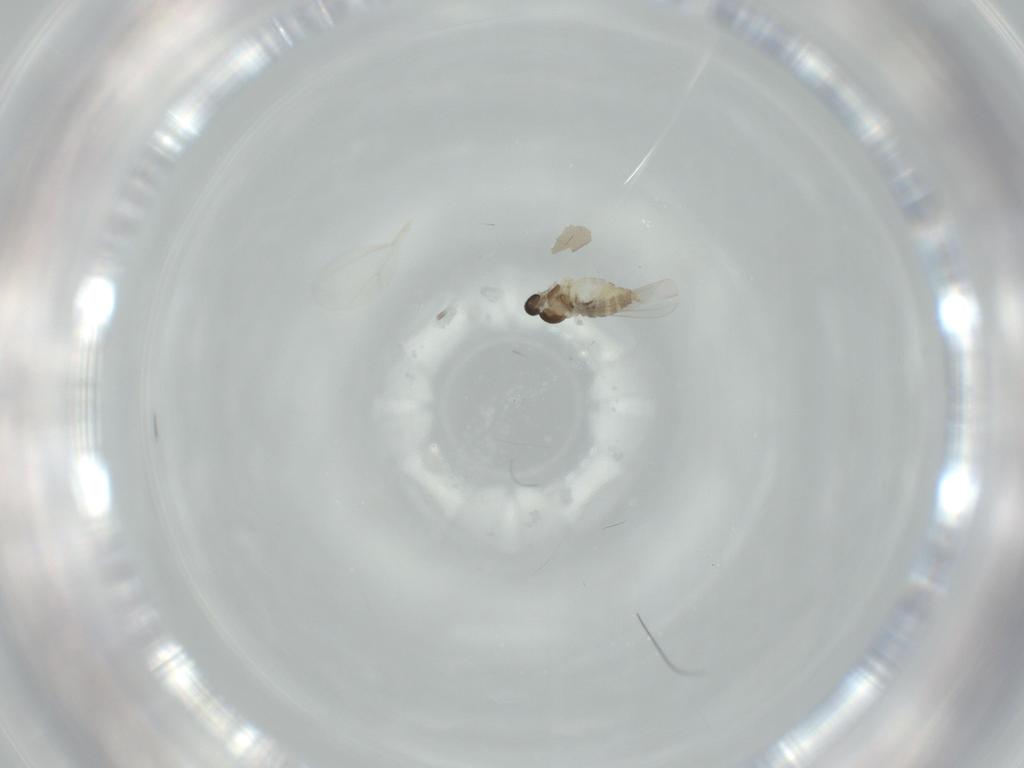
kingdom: Animalia
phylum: Arthropoda
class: Insecta
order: Diptera
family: Cecidomyiidae
